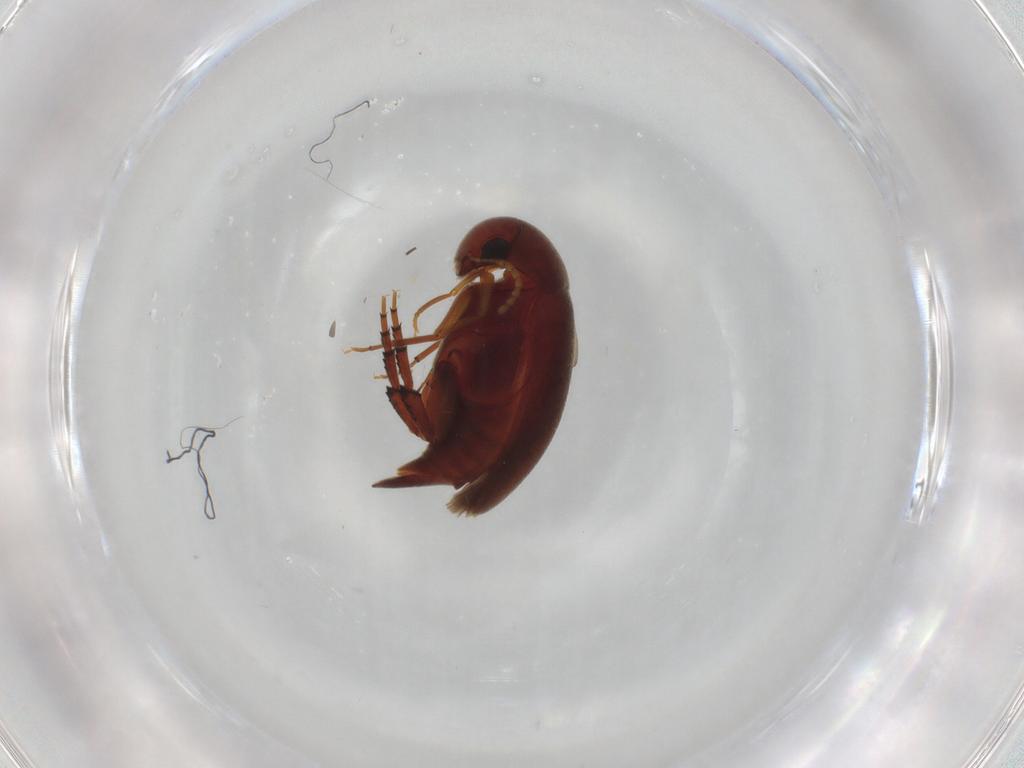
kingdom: Animalia
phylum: Arthropoda
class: Insecta
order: Coleoptera
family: Mordellidae
